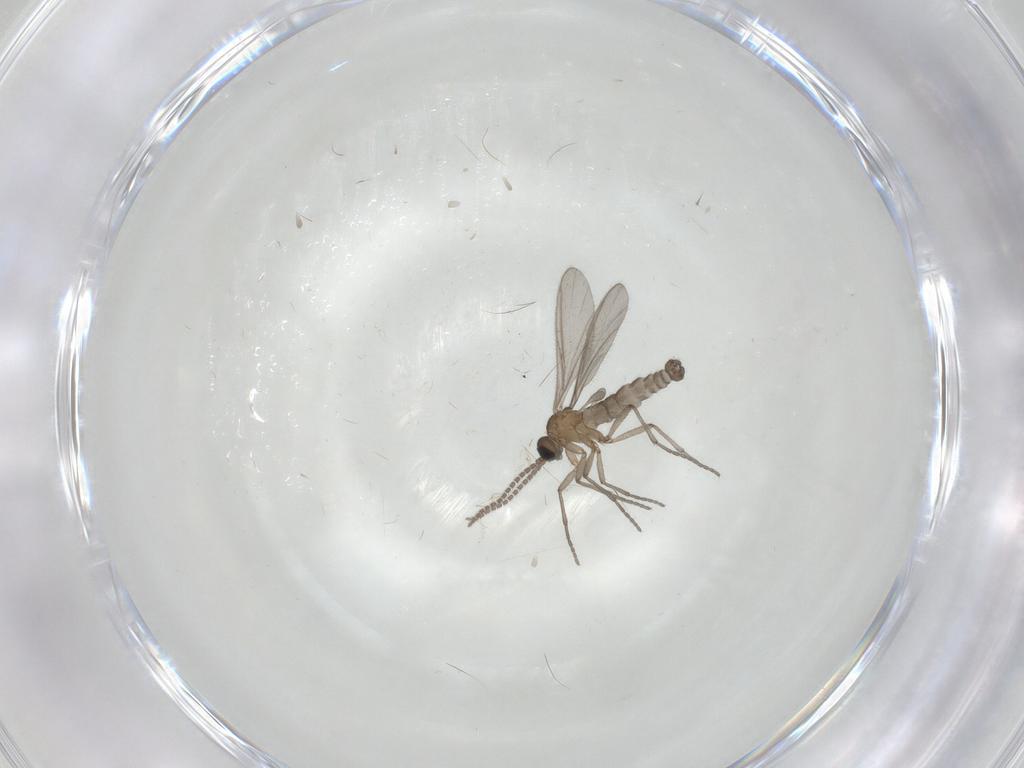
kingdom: Animalia
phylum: Arthropoda
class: Insecta
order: Diptera
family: Sciaridae
